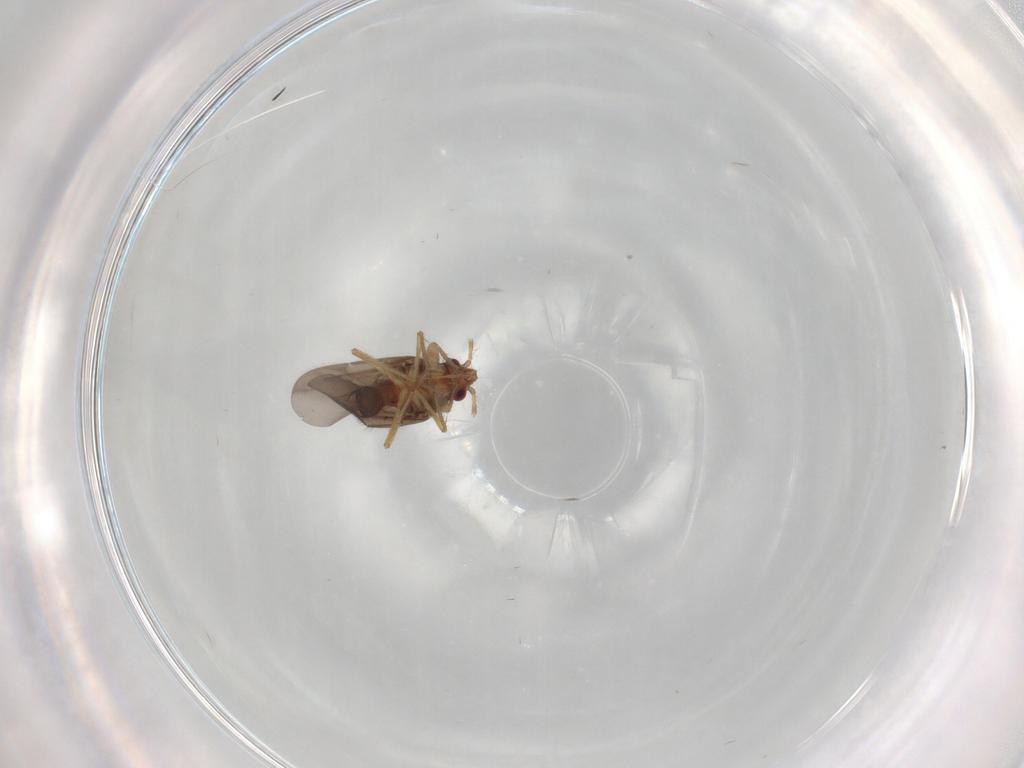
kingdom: Animalia
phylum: Arthropoda
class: Insecta
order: Hemiptera
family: Ceratocombidae
